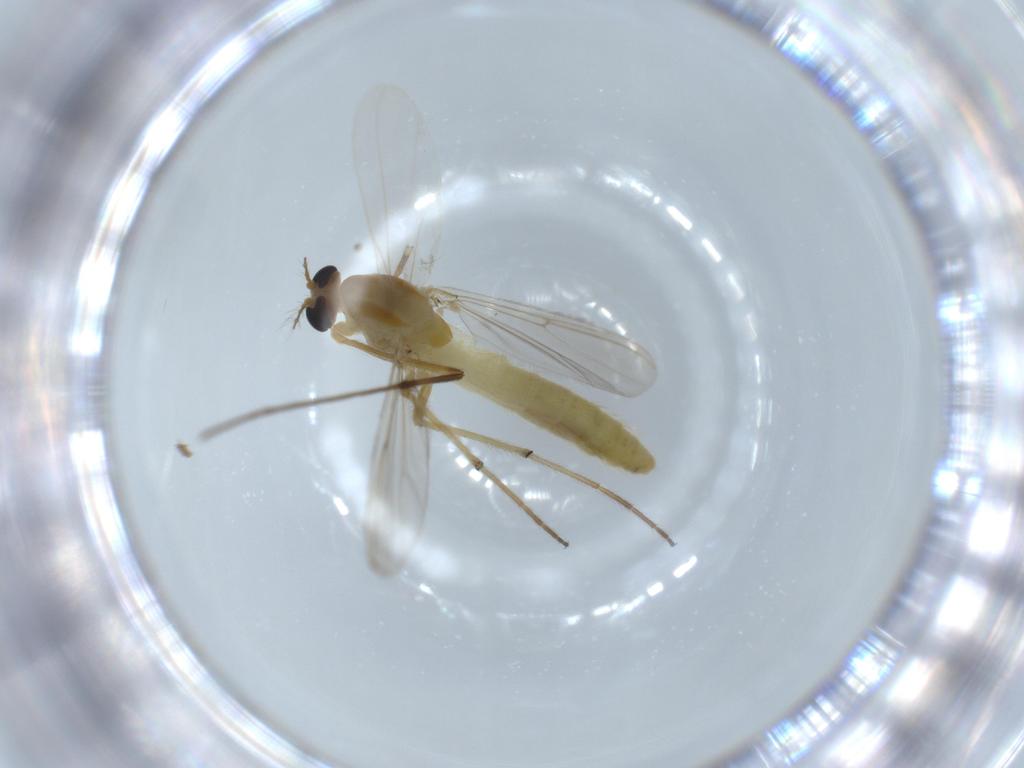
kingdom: Animalia
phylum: Arthropoda
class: Insecta
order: Diptera
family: Chironomidae
